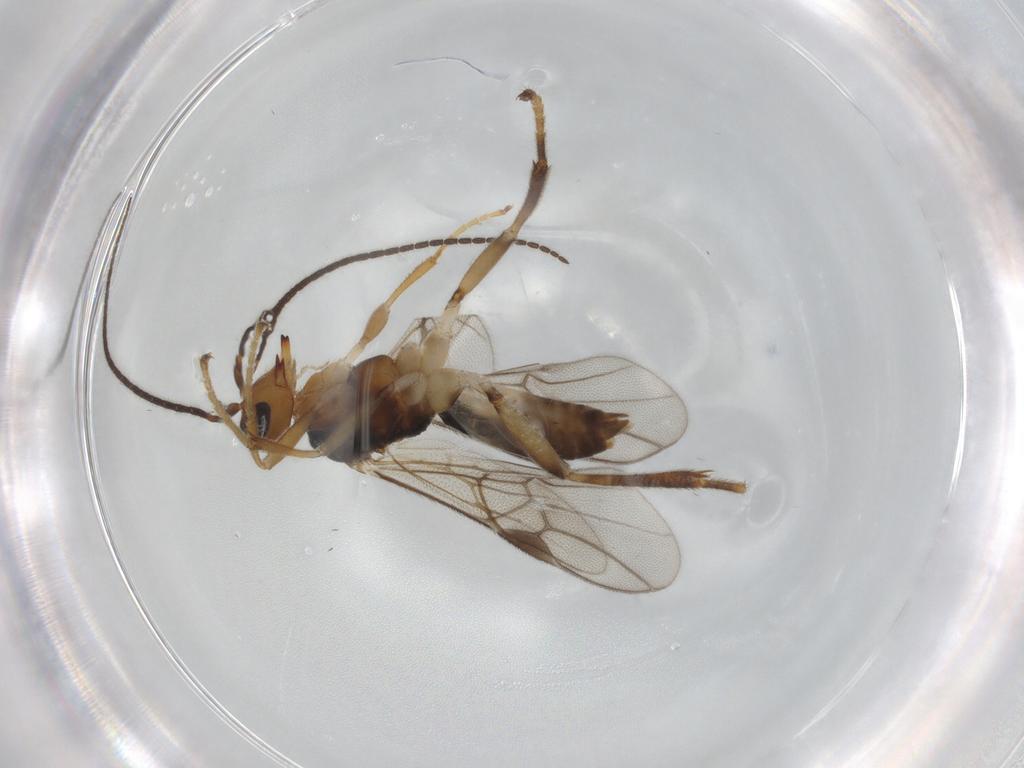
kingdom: Animalia
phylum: Arthropoda
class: Insecta
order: Hymenoptera
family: Braconidae
